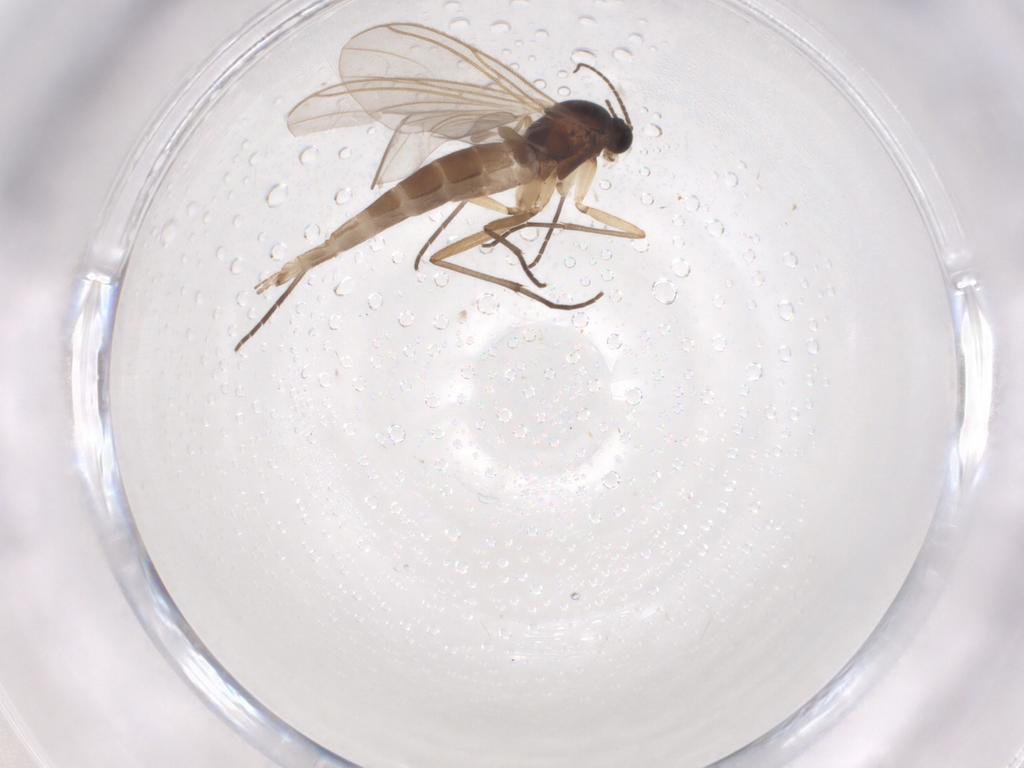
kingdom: Animalia
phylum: Arthropoda
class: Insecta
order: Diptera
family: Sciaridae
